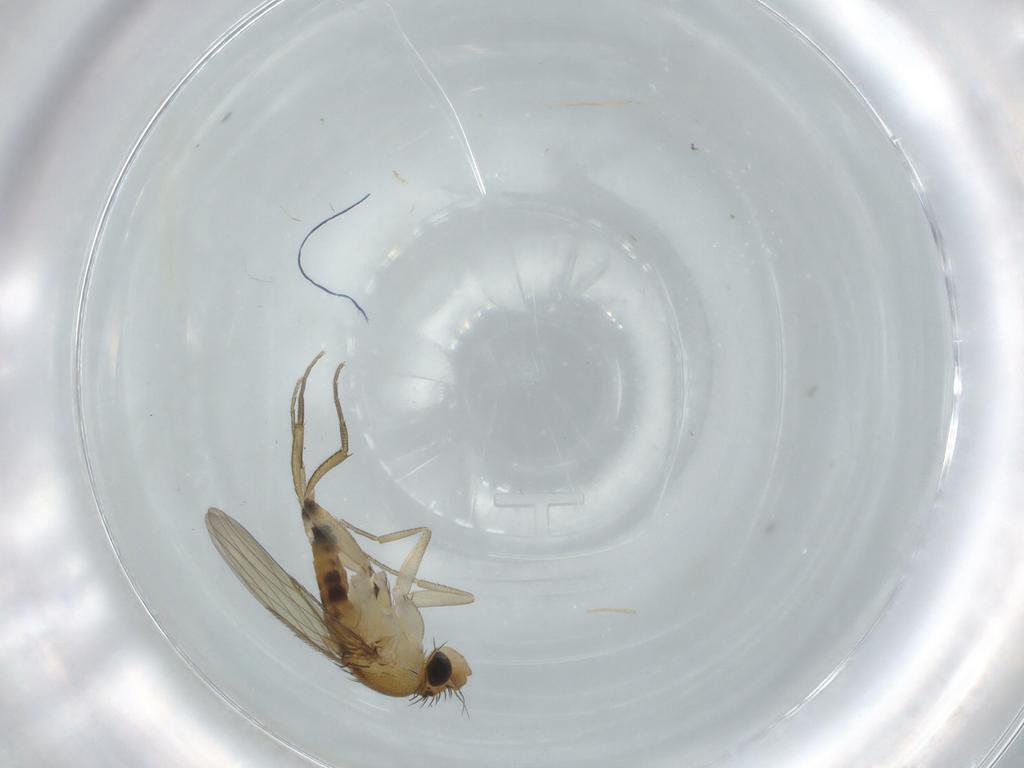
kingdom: Animalia
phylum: Arthropoda
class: Insecta
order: Diptera
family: Phoridae
